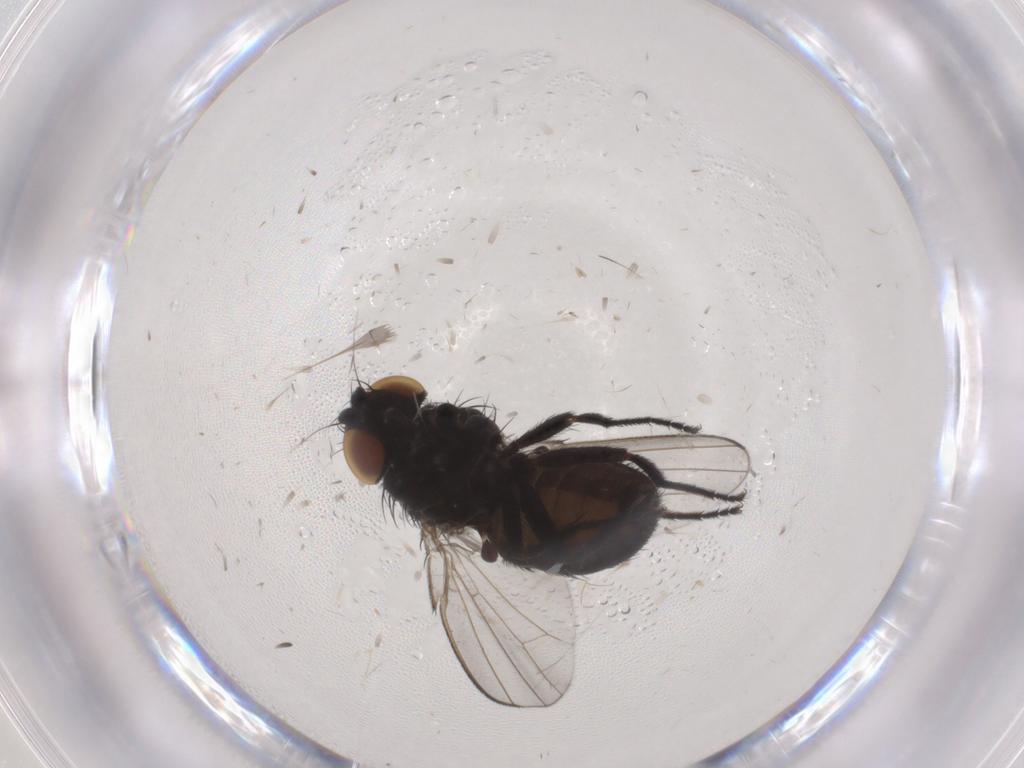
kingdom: Animalia
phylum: Arthropoda
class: Insecta
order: Diptera
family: Milichiidae
